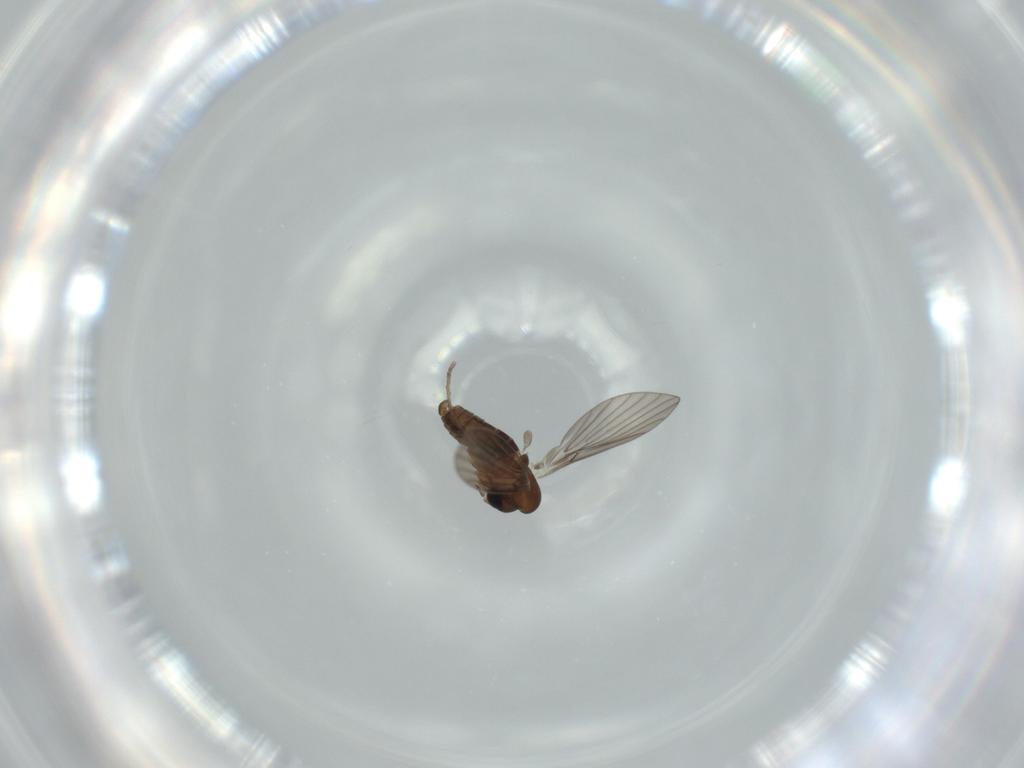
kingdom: Animalia
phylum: Arthropoda
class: Insecta
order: Diptera
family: Psychodidae
